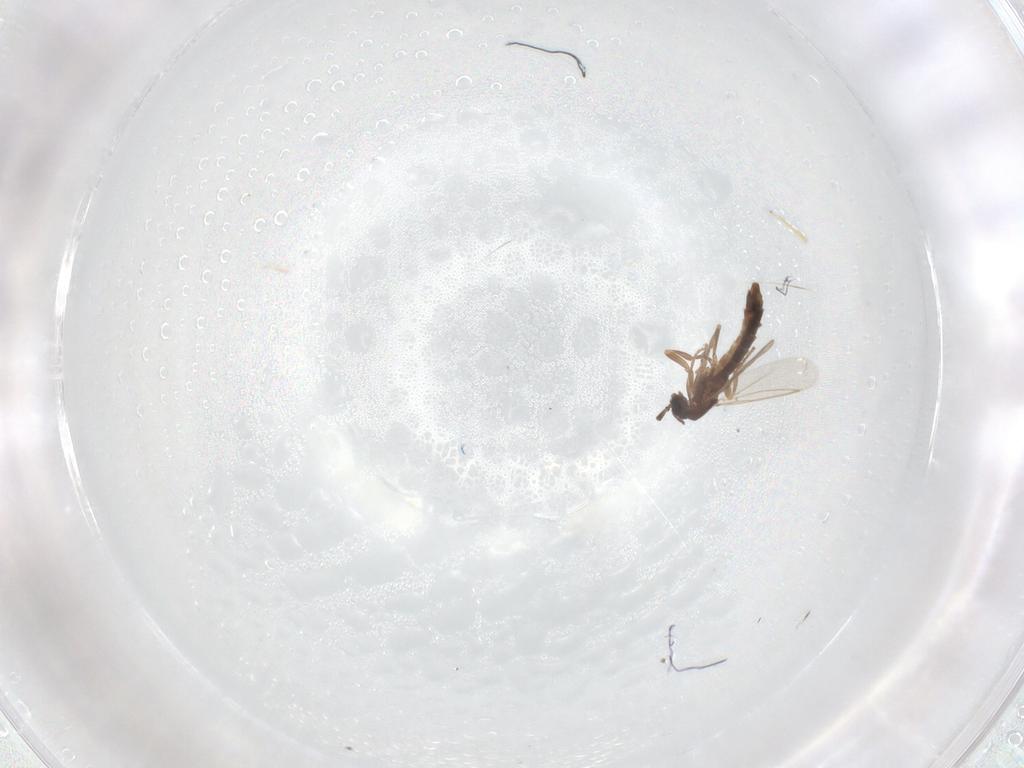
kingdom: Animalia
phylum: Arthropoda
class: Insecta
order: Diptera
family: Scatopsidae
